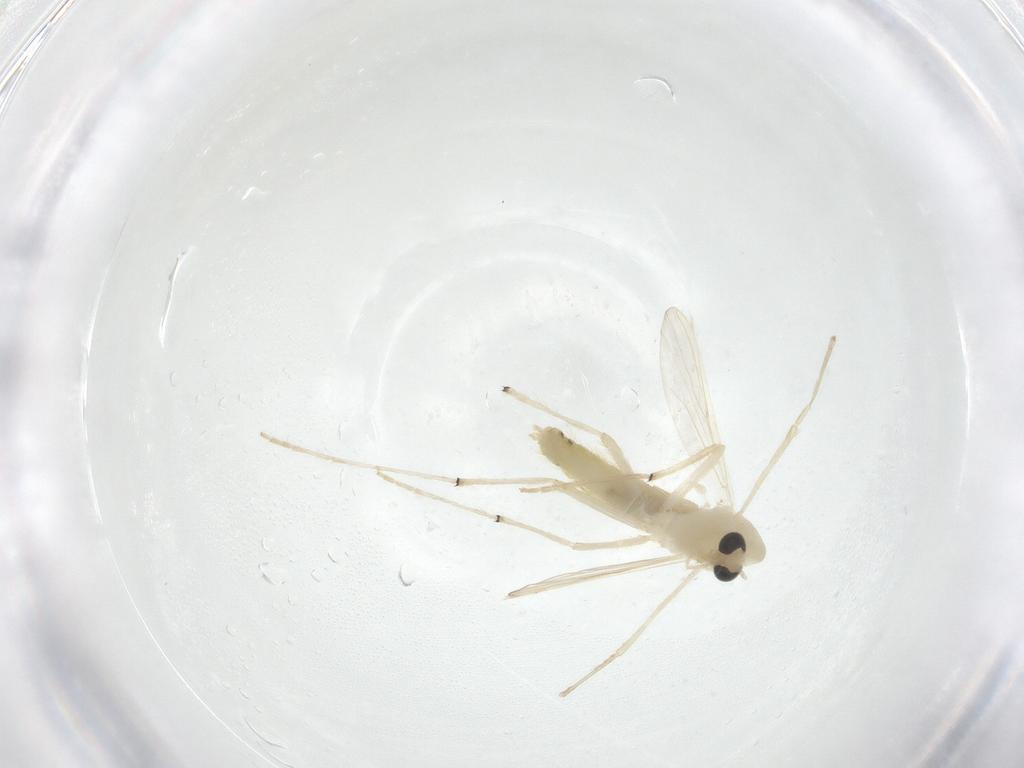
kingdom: Animalia
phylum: Arthropoda
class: Insecta
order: Diptera
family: Chironomidae
